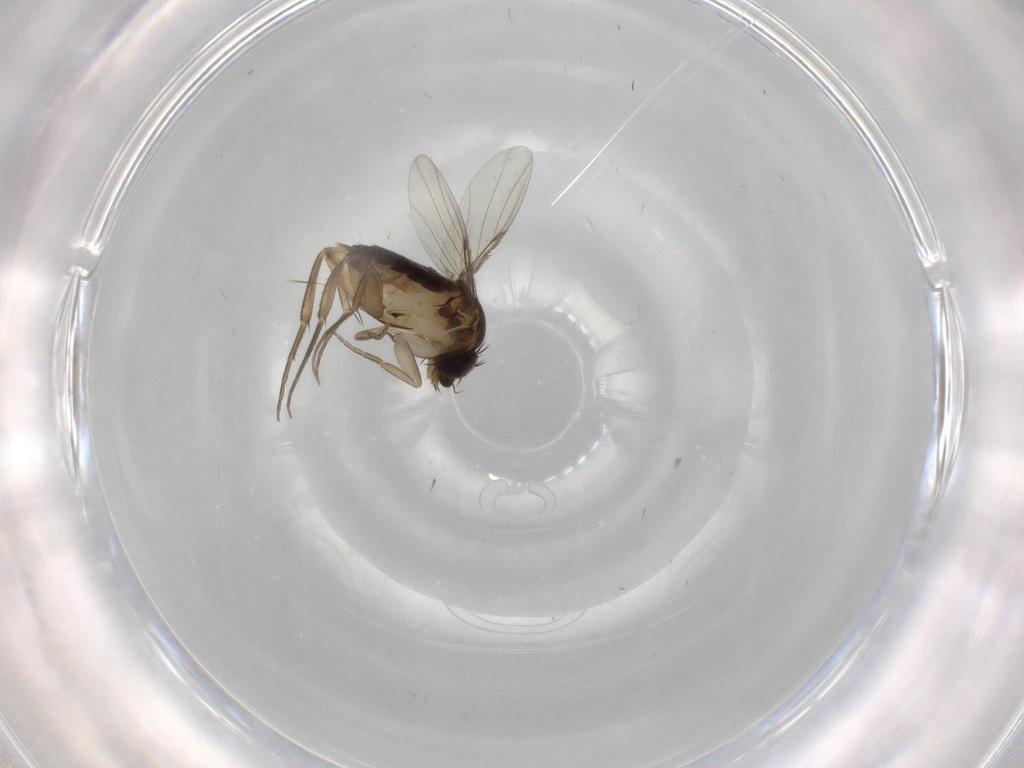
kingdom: Animalia
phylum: Arthropoda
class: Insecta
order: Diptera
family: Phoridae
